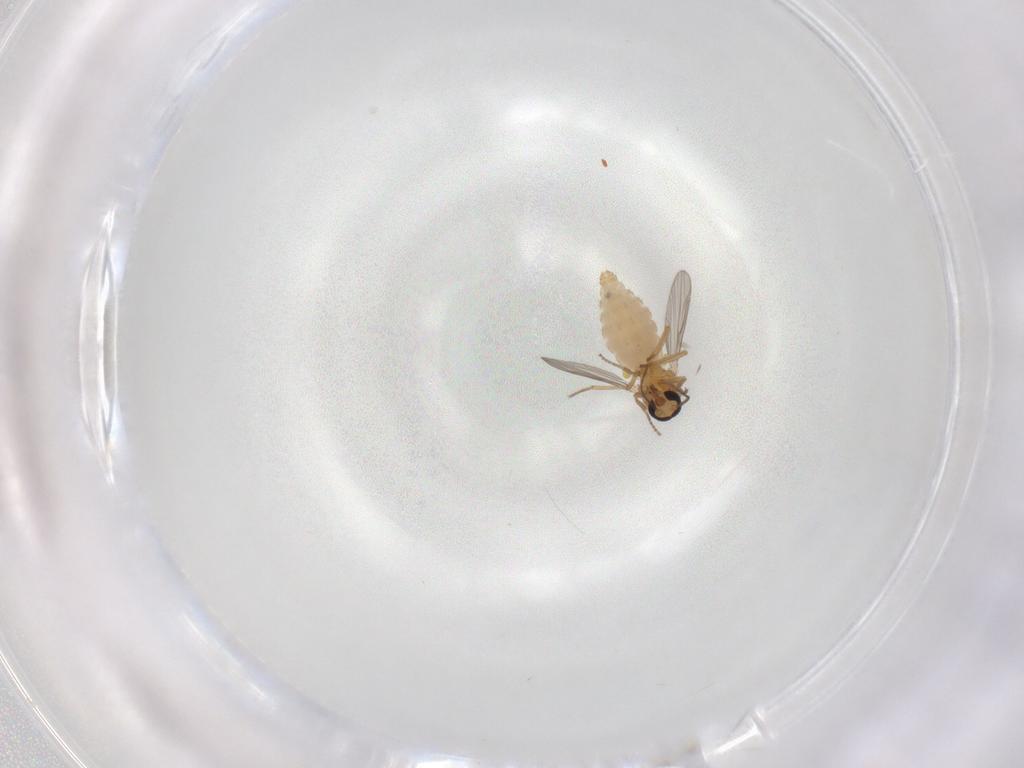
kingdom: Animalia
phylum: Arthropoda
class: Insecta
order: Diptera
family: Ceratopogonidae
